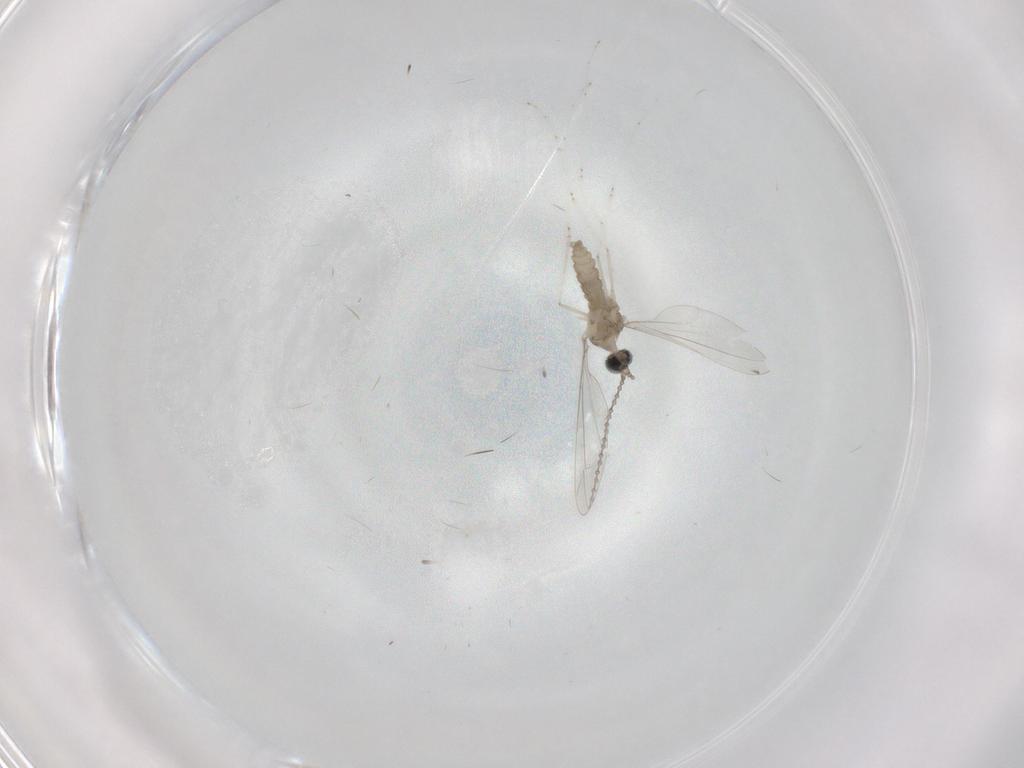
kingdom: Animalia
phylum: Arthropoda
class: Insecta
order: Diptera
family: Cecidomyiidae
